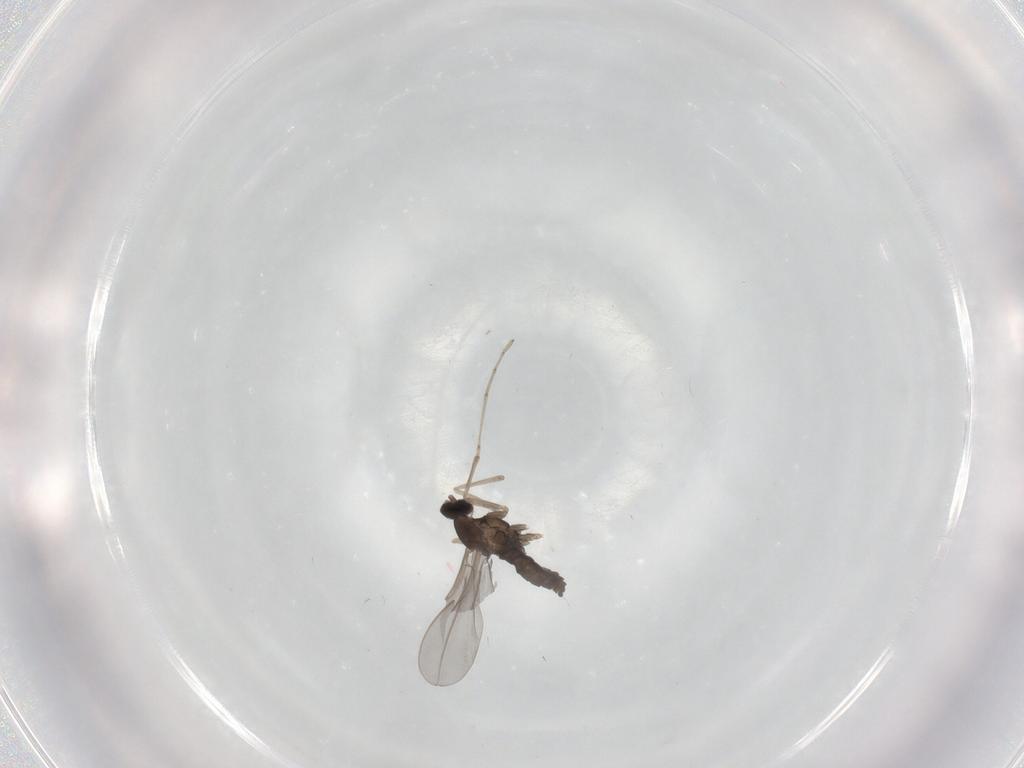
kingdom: Animalia
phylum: Arthropoda
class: Insecta
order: Diptera
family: Cecidomyiidae
